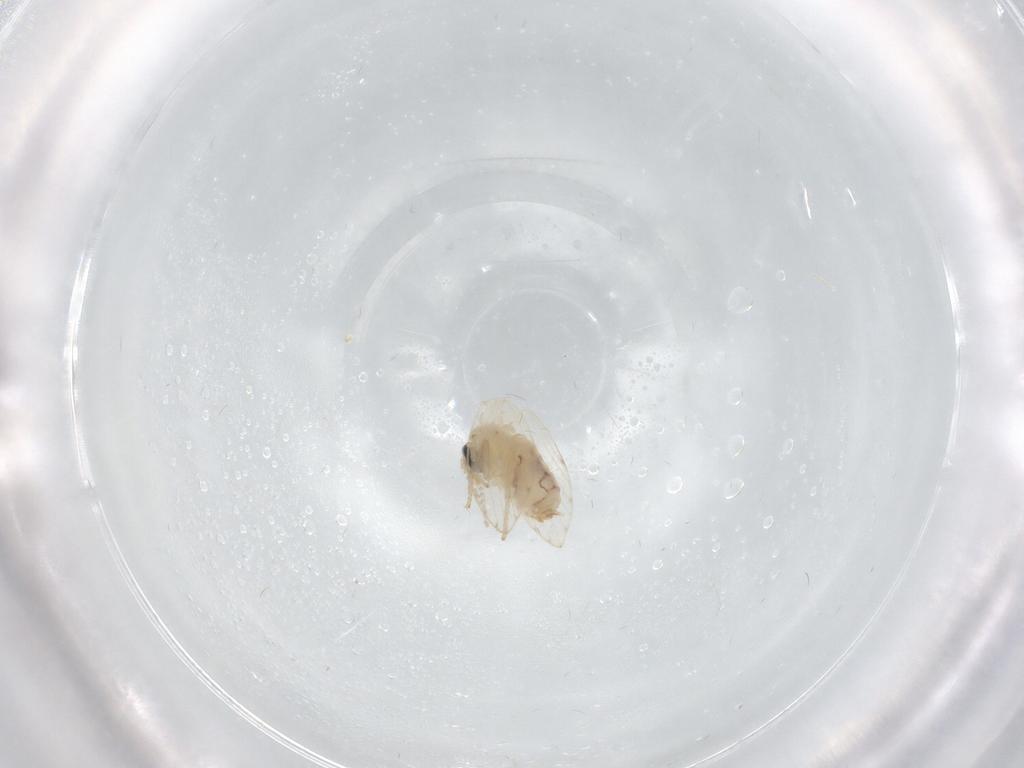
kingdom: Animalia
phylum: Arthropoda
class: Insecta
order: Diptera
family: Psychodidae
